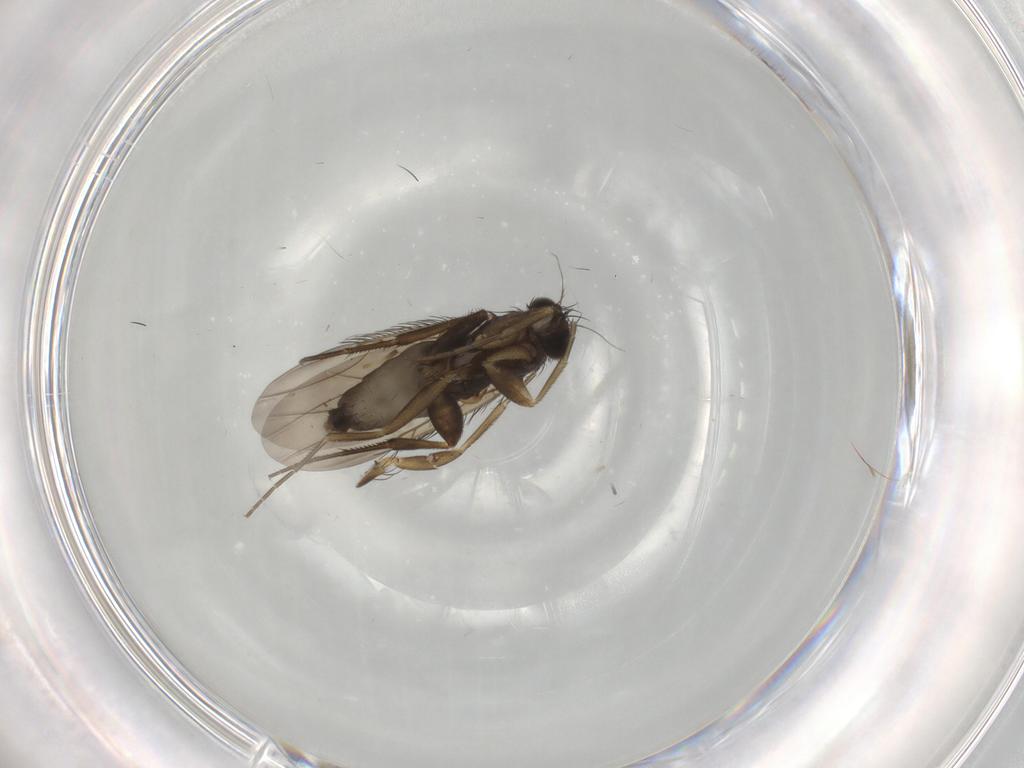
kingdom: Animalia
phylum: Arthropoda
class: Insecta
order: Diptera
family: Phoridae
